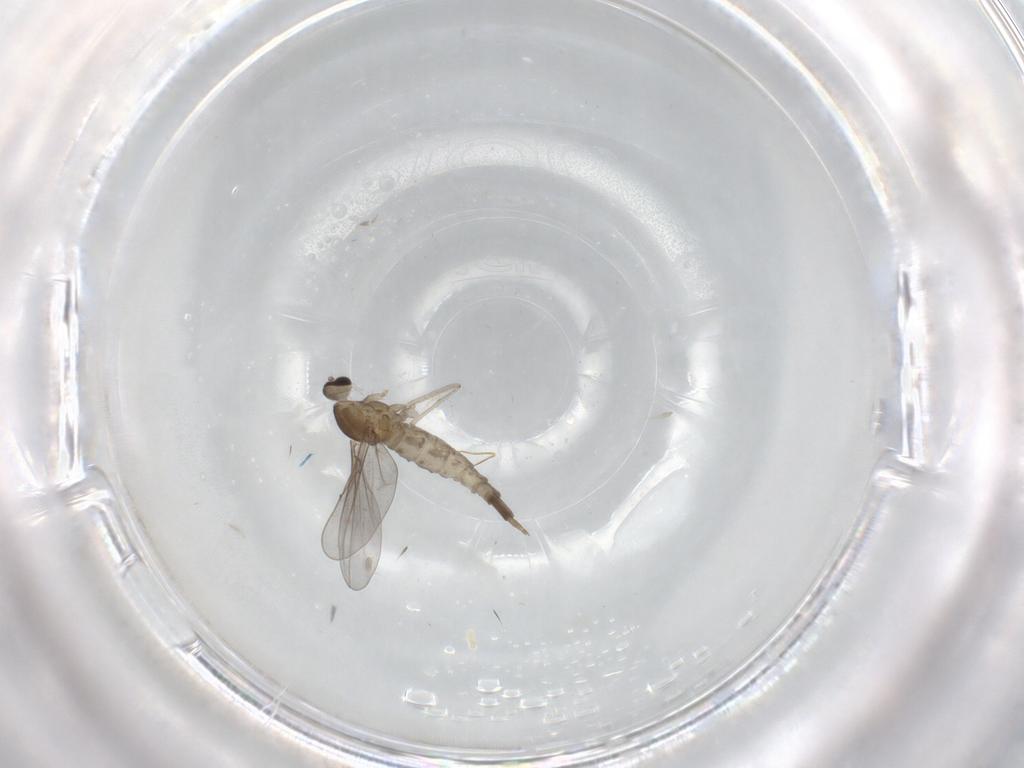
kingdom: Animalia
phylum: Arthropoda
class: Insecta
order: Diptera
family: Cecidomyiidae
